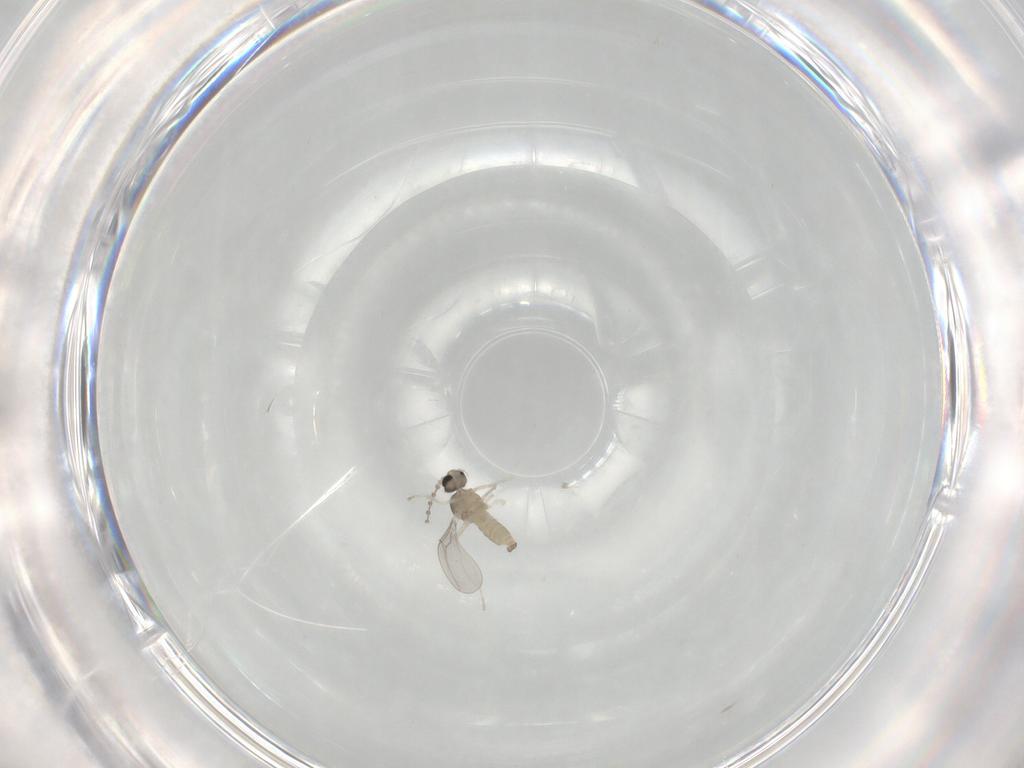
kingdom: Animalia
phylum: Arthropoda
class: Insecta
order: Diptera
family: Cecidomyiidae
